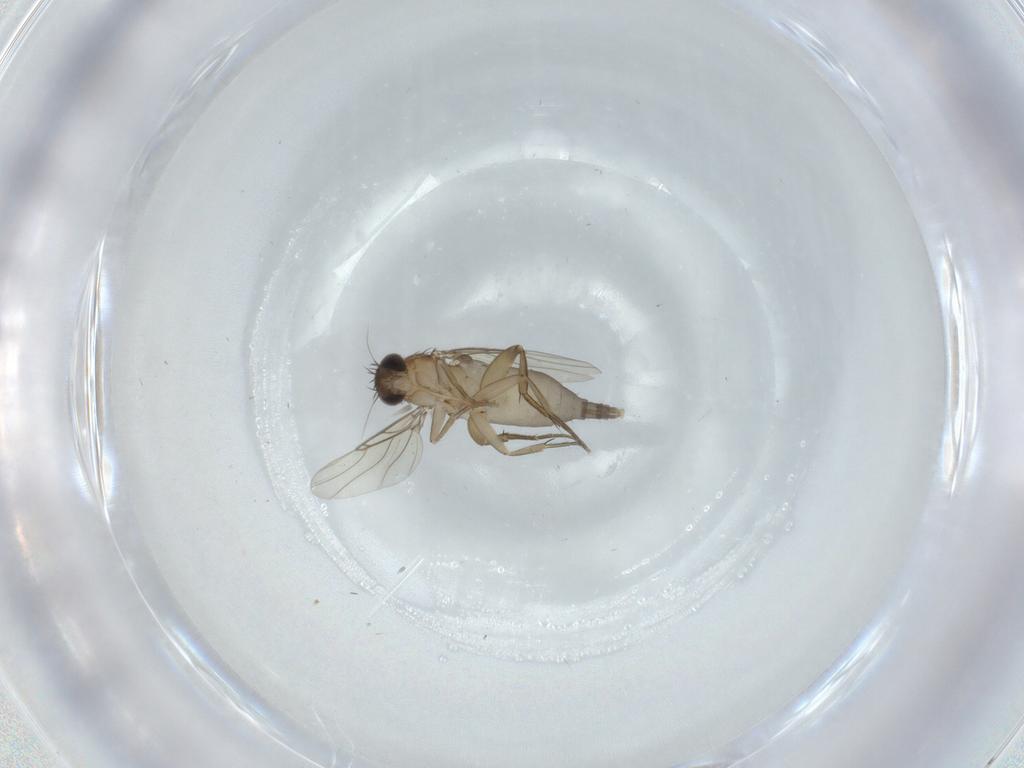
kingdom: Animalia
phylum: Arthropoda
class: Insecta
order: Diptera
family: Phoridae
